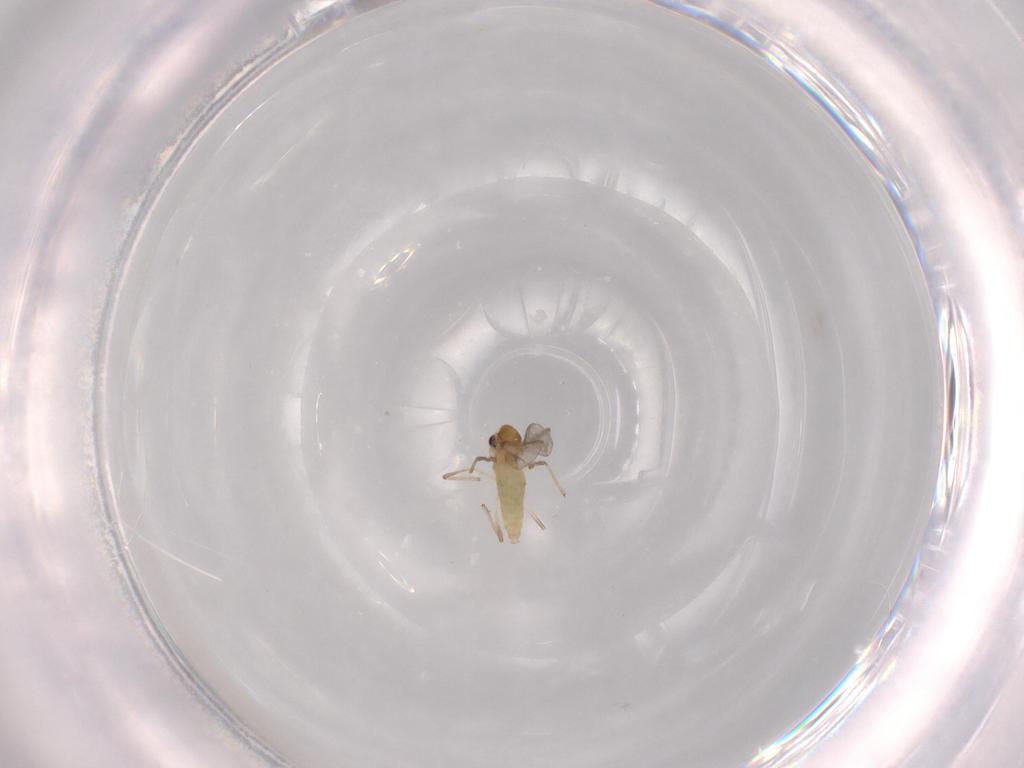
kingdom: Animalia
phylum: Arthropoda
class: Insecta
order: Diptera
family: Chironomidae
